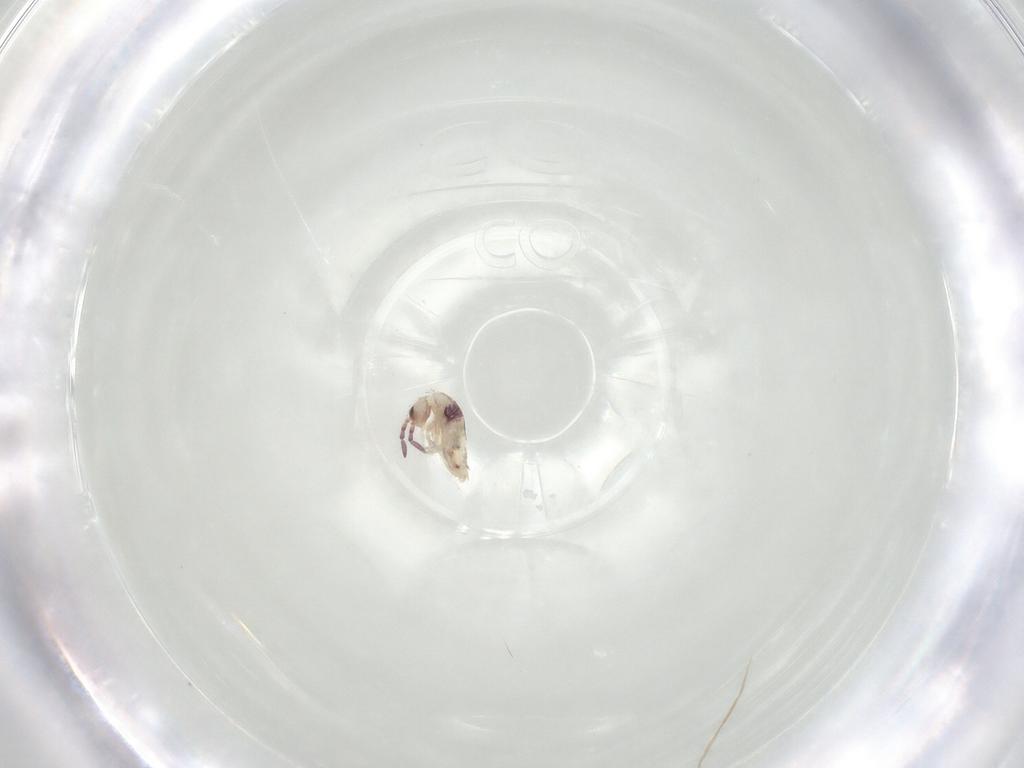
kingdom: Animalia
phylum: Arthropoda
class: Collembola
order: Entomobryomorpha
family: Entomobryidae
